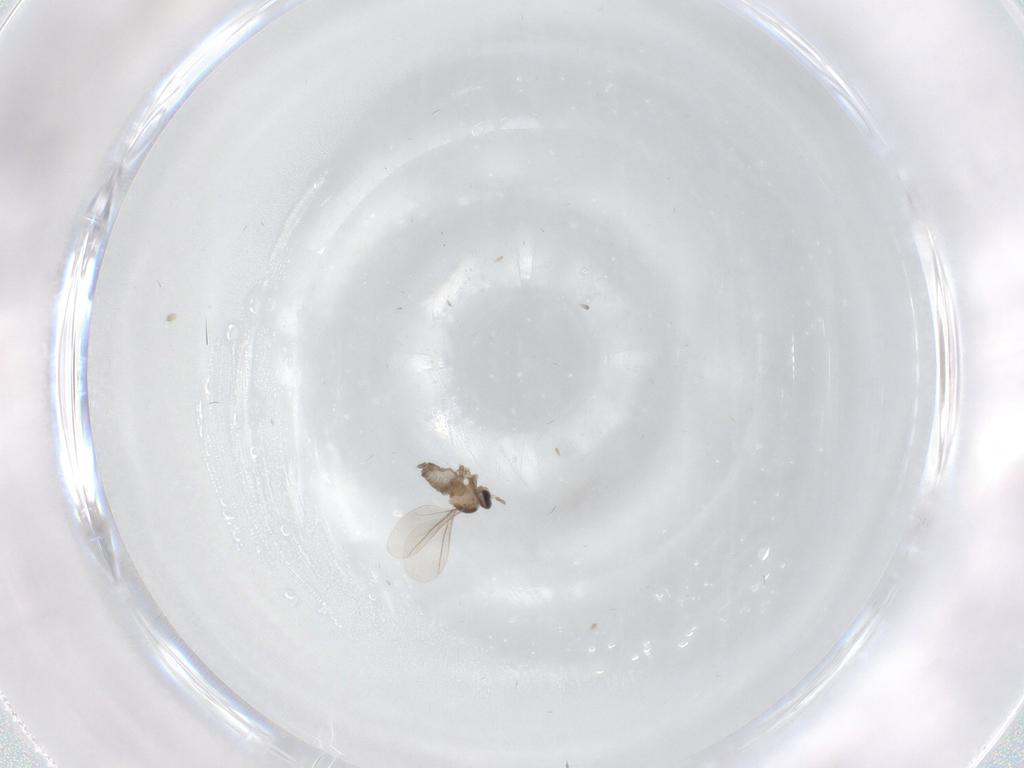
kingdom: Animalia
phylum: Arthropoda
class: Insecta
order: Diptera
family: Cecidomyiidae
